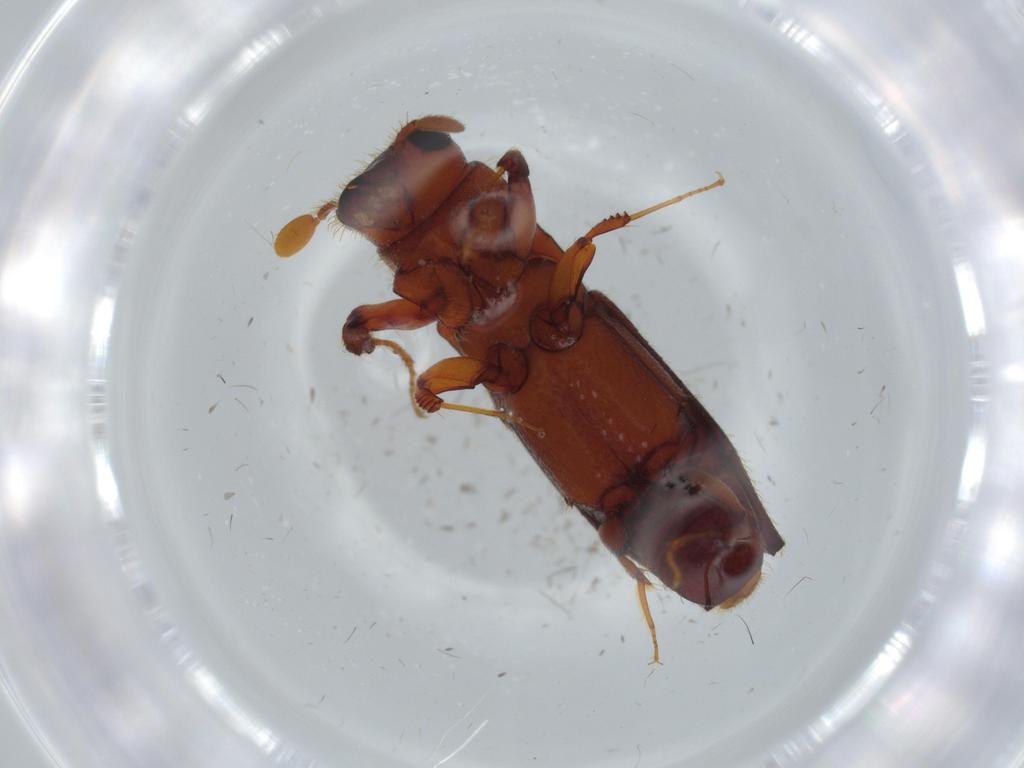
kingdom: Animalia
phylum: Arthropoda
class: Insecta
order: Coleoptera
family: Curculionidae
